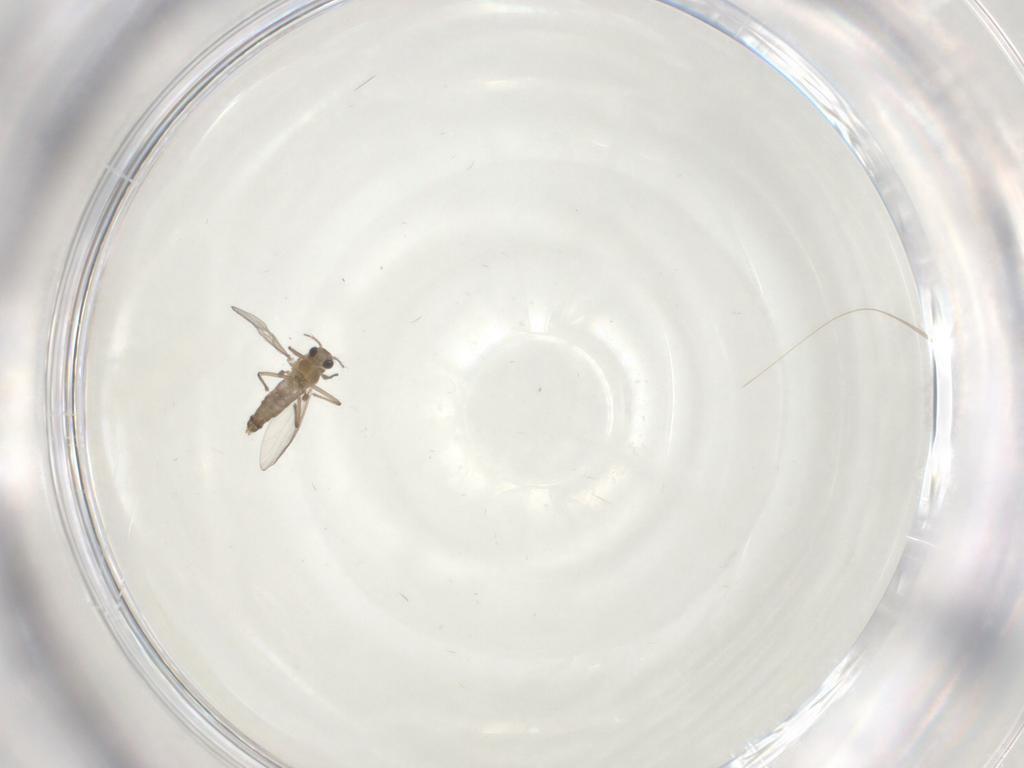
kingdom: Animalia
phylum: Arthropoda
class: Insecta
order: Diptera
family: Chironomidae
